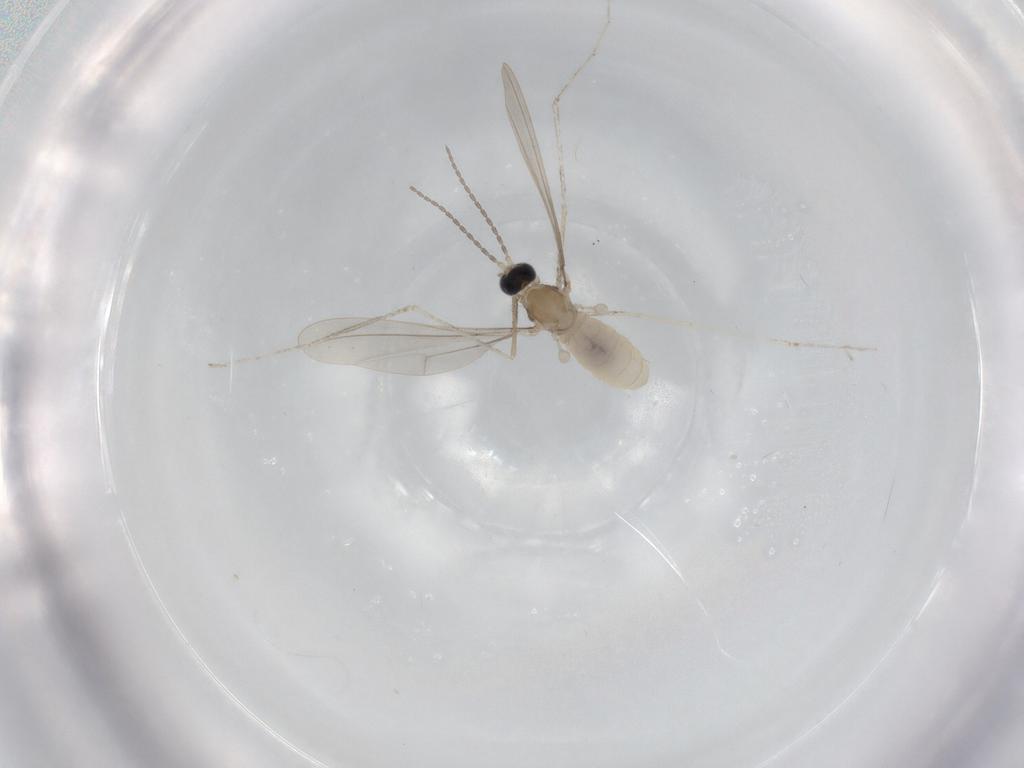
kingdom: Animalia
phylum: Arthropoda
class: Insecta
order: Diptera
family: Cecidomyiidae
